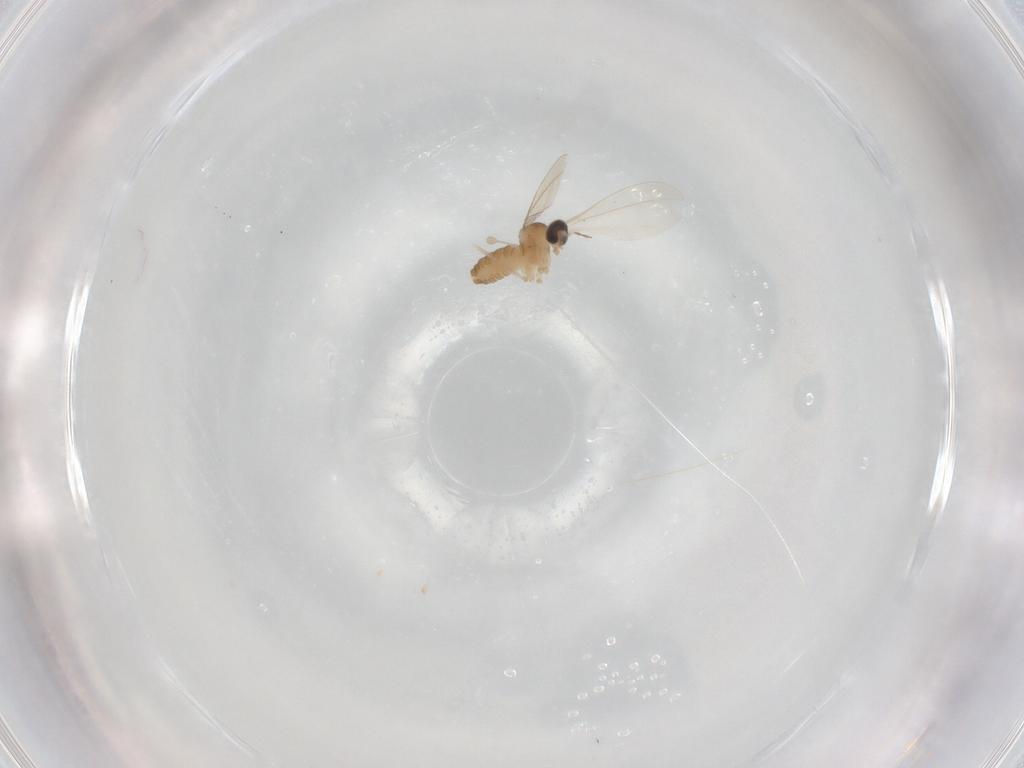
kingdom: Animalia
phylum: Arthropoda
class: Insecta
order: Diptera
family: Cecidomyiidae
